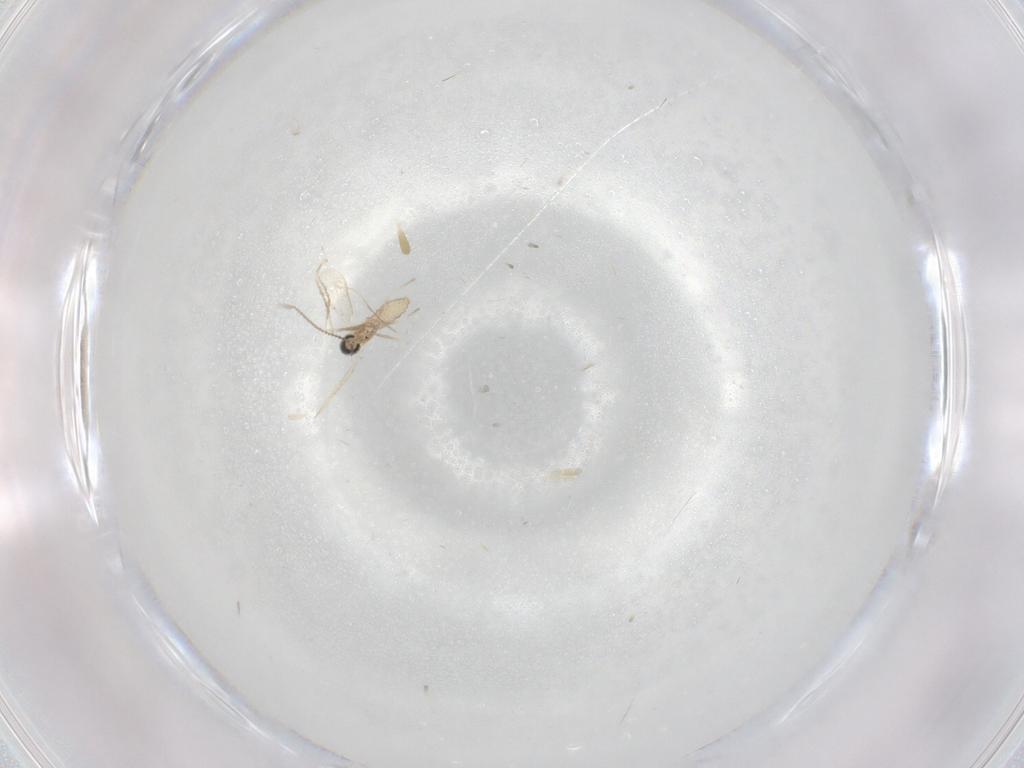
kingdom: Animalia
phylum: Arthropoda
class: Insecta
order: Diptera
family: Cecidomyiidae
